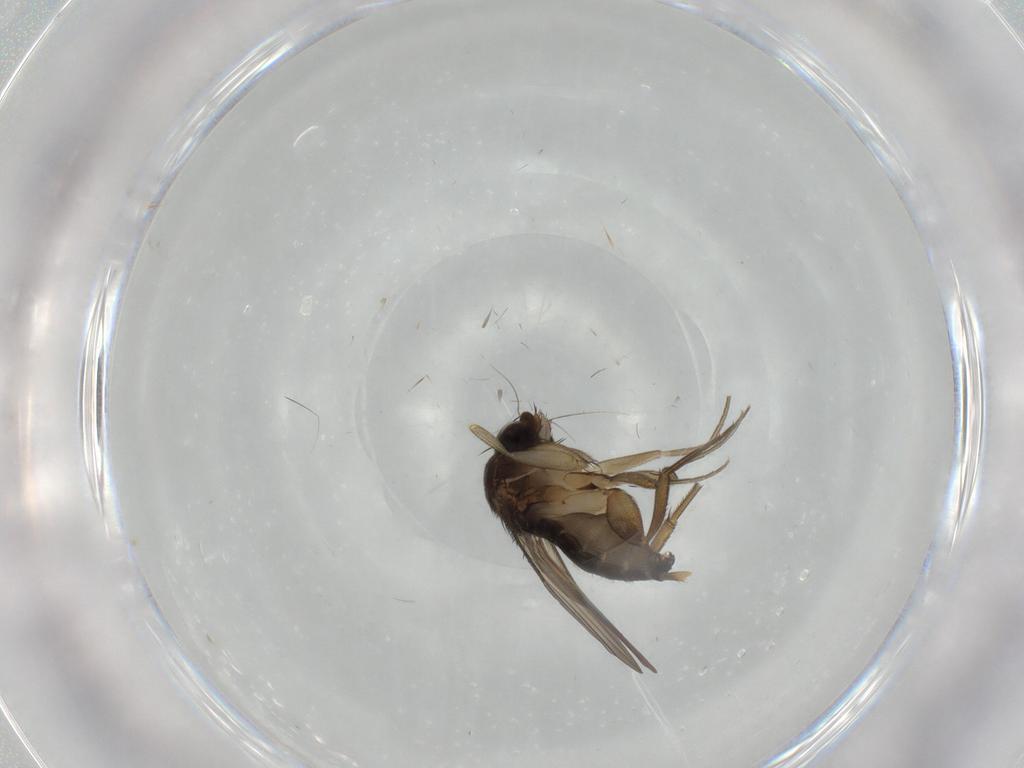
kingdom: Animalia
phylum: Arthropoda
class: Insecta
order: Diptera
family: Phoridae
